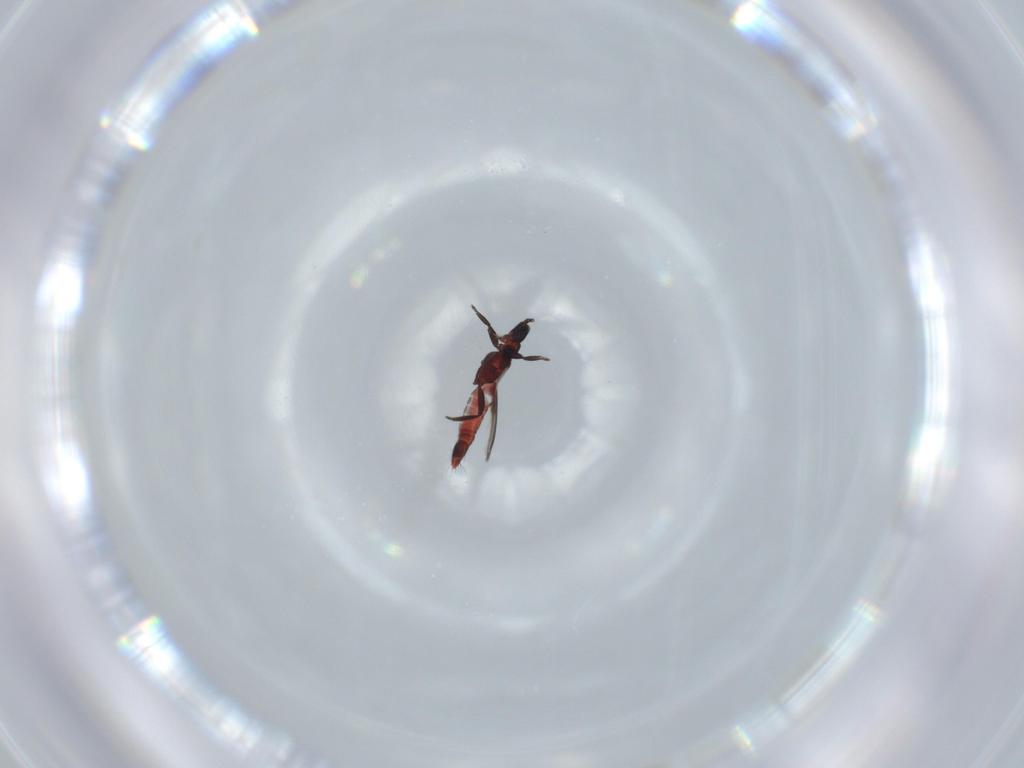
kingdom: Animalia
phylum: Arthropoda
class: Insecta
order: Thysanoptera
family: Thripidae
